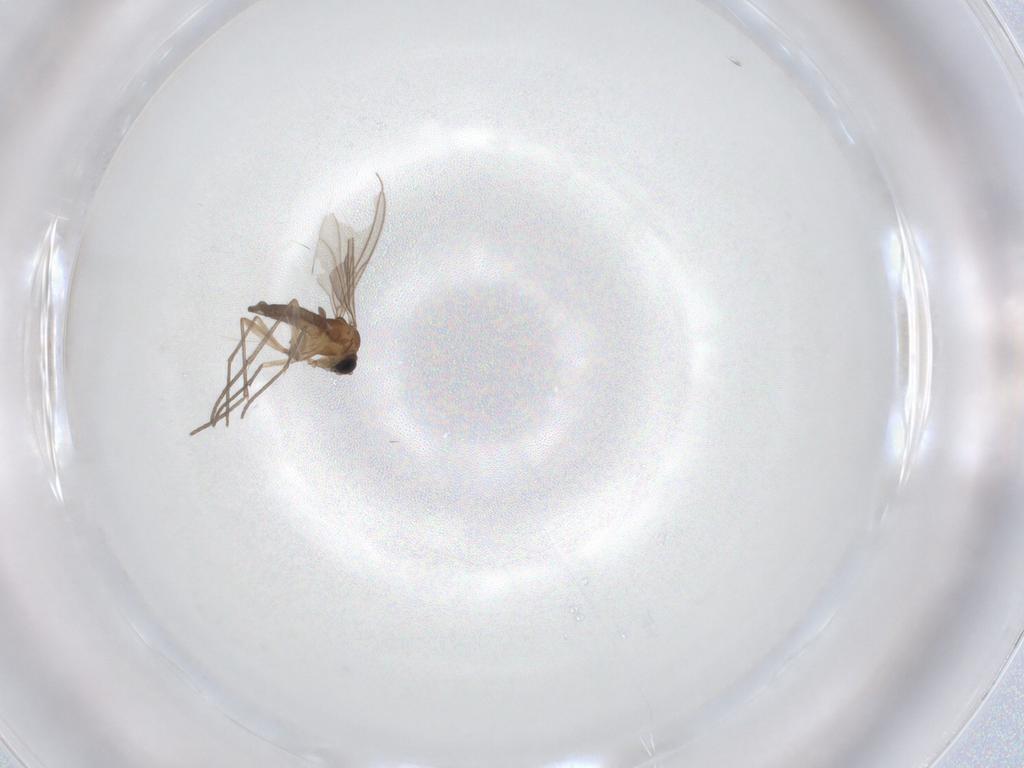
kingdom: Animalia
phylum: Arthropoda
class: Insecta
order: Diptera
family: Sciaridae
